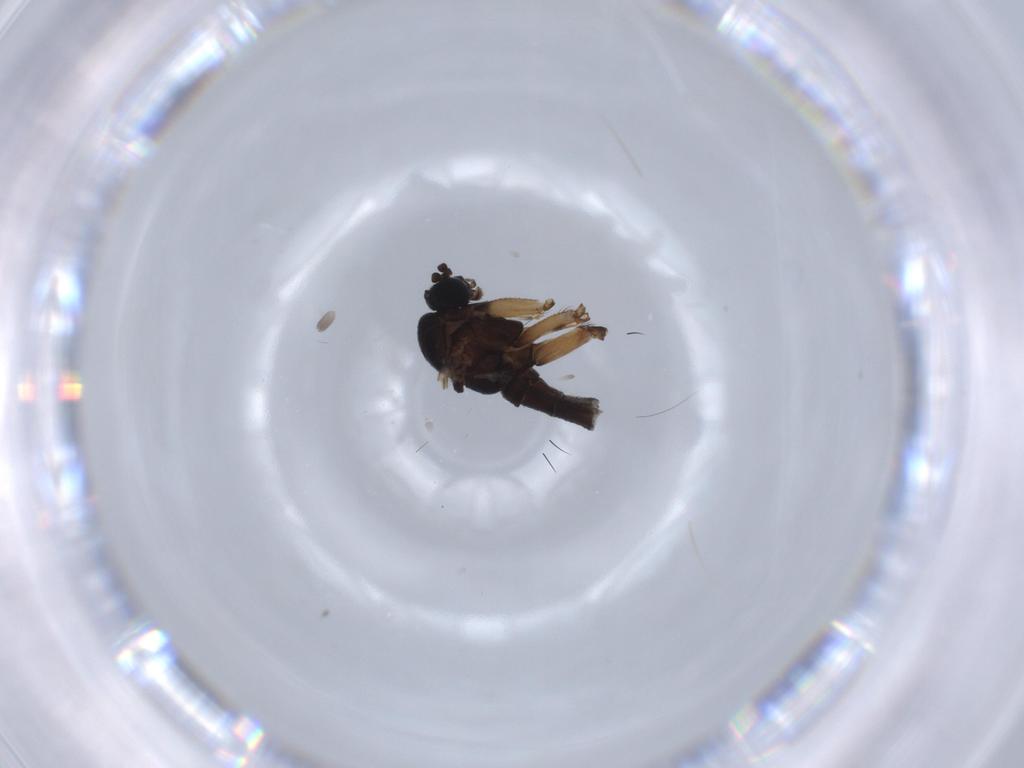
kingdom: Animalia
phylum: Arthropoda
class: Insecta
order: Diptera
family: Sciaridae
